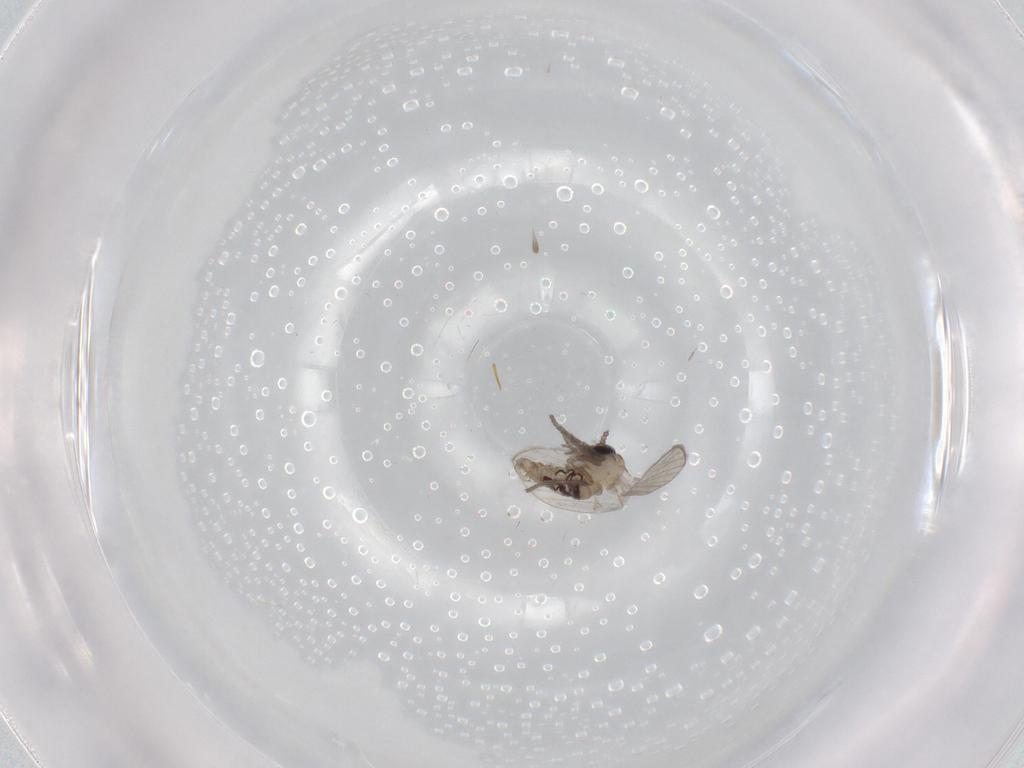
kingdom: Animalia
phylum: Arthropoda
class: Insecta
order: Diptera
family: Psychodidae
